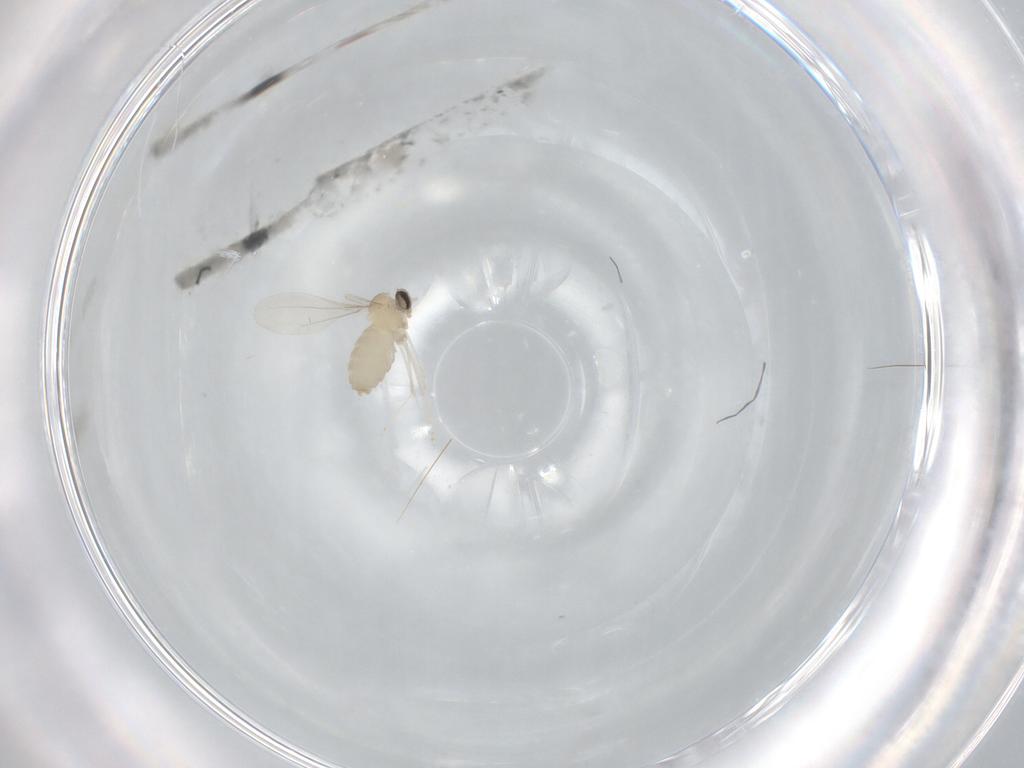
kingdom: Animalia
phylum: Arthropoda
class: Insecta
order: Diptera
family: Cecidomyiidae
